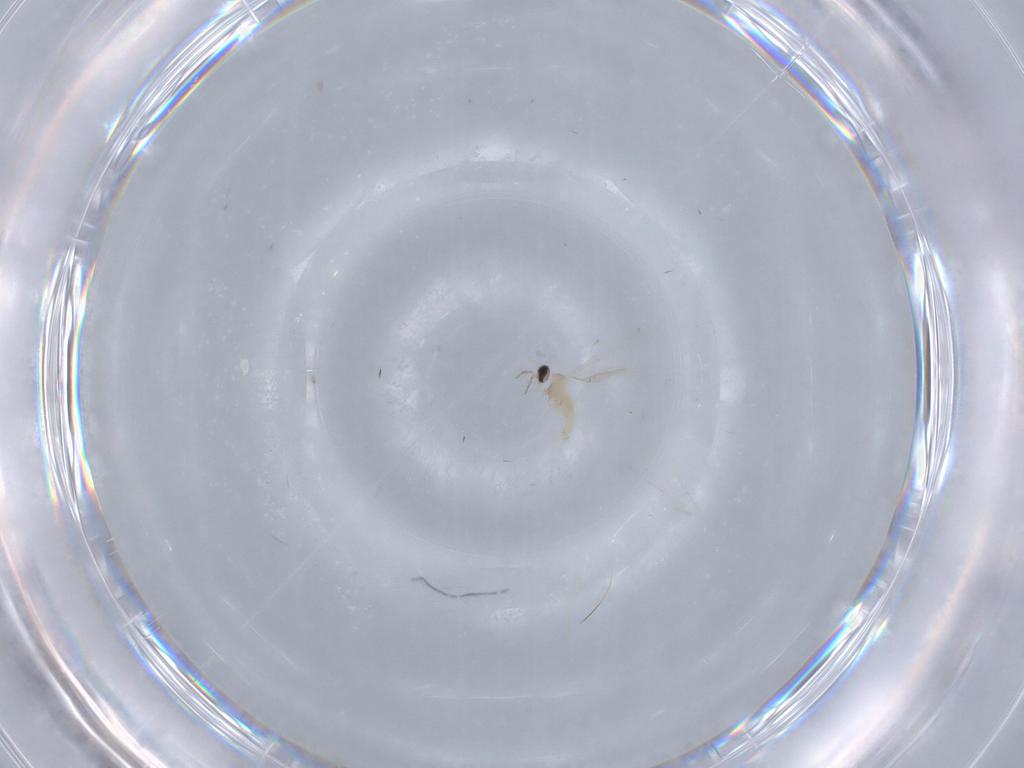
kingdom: Animalia
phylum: Arthropoda
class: Insecta
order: Diptera
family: Cecidomyiidae
